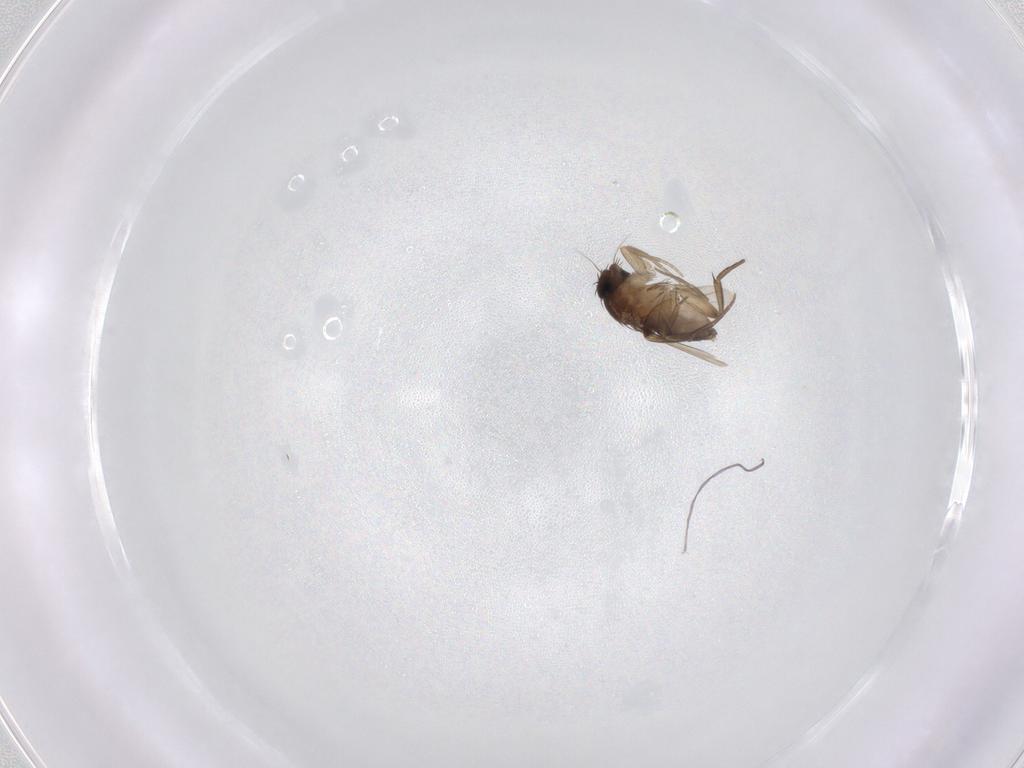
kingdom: Animalia
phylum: Arthropoda
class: Insecta
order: Diptera
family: Phoridae
